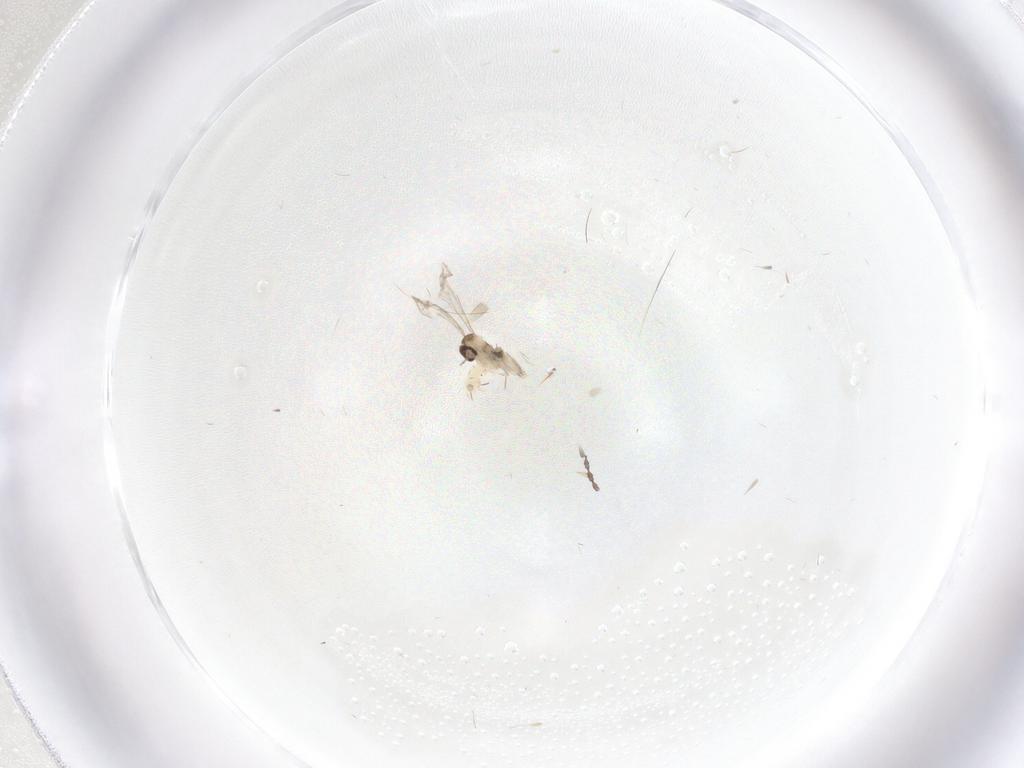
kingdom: Animalia
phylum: Arthropoda
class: Insecta
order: Diptera
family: Cecidomyiidae
